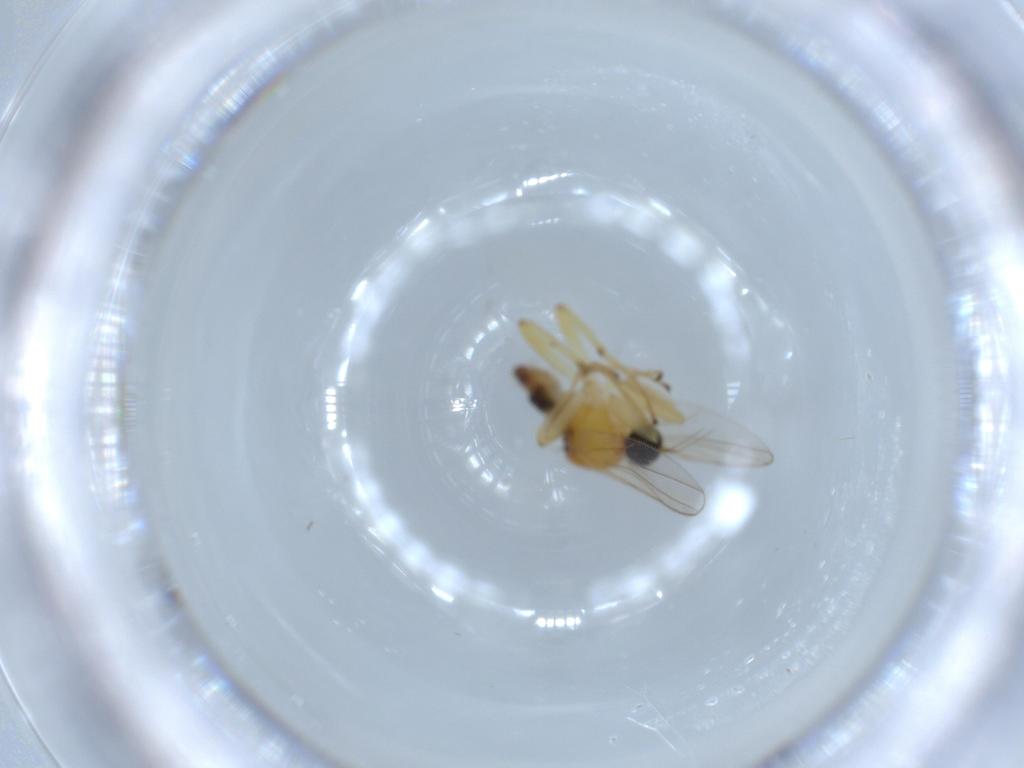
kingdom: Animalia
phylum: Arthropoda
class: Insecta
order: Diptera
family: Hybotidae
